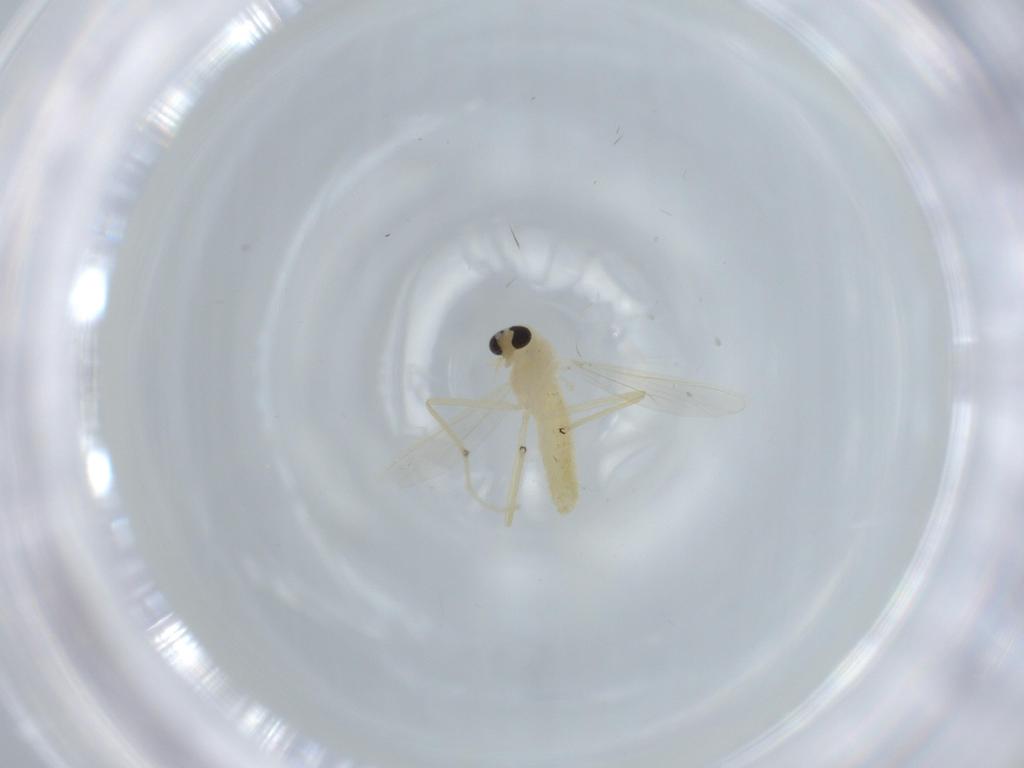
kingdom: Animalia
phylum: Arthropoda
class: Insecta
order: Diptera
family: Chironomidae
